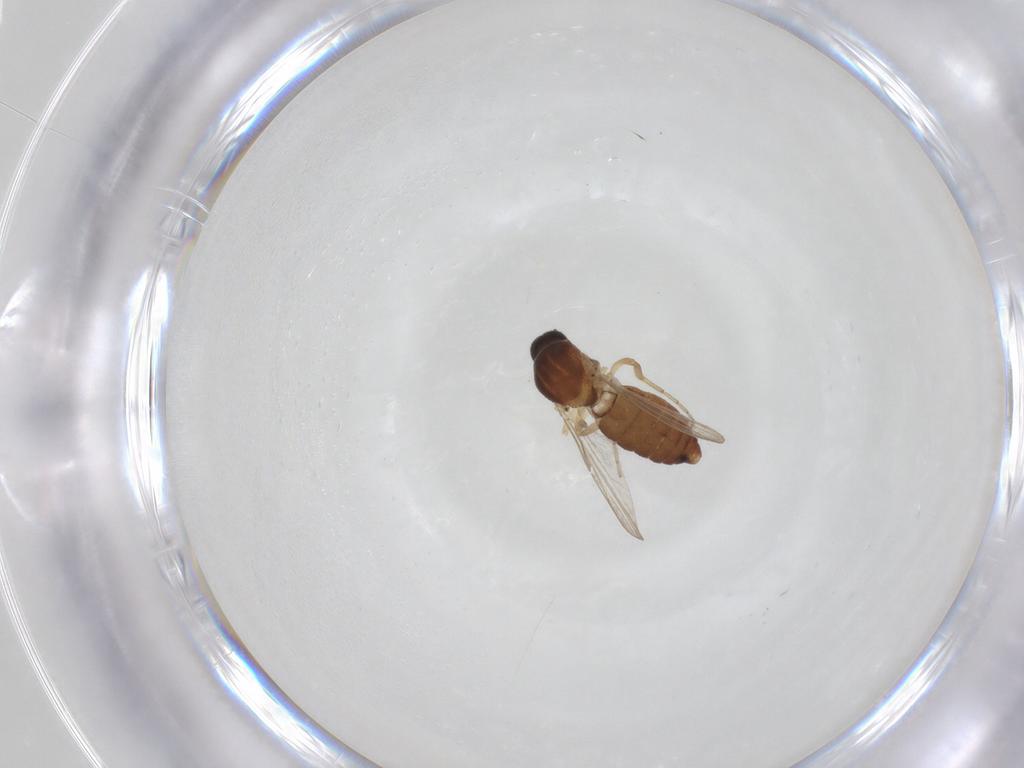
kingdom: Animalia
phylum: Arthropoda
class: Insecta
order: Diptera
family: Ceratopogonidae
